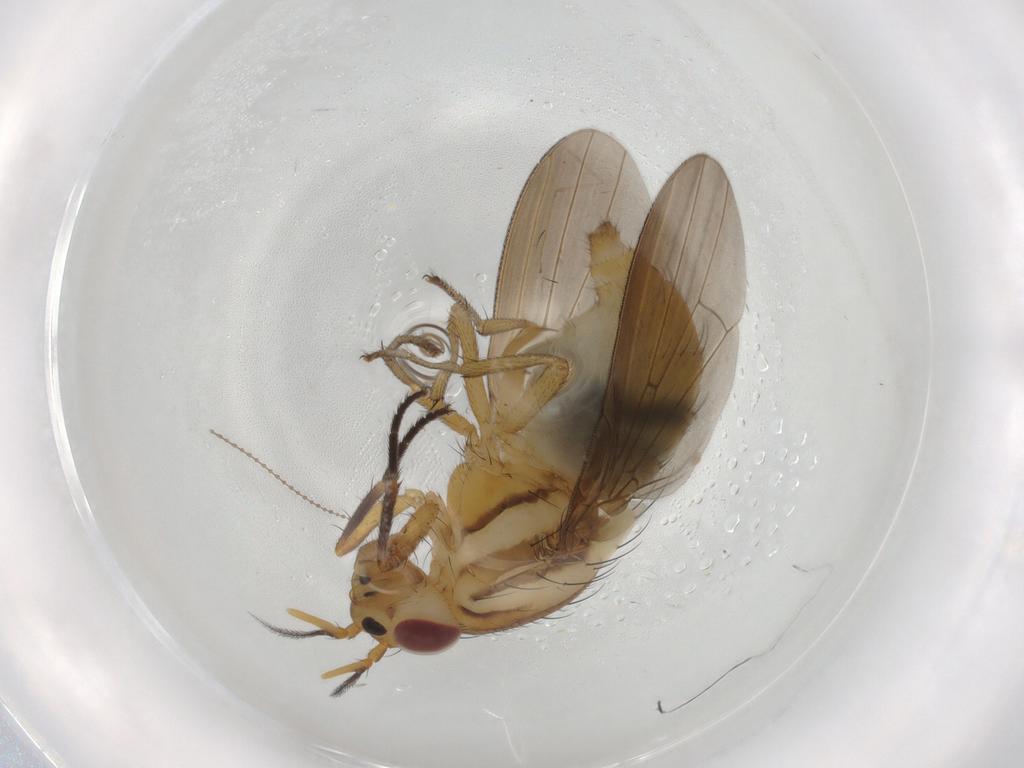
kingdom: Animalia
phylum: Arthropoda
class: Insecta
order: Diptera
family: Lauxaniidae
